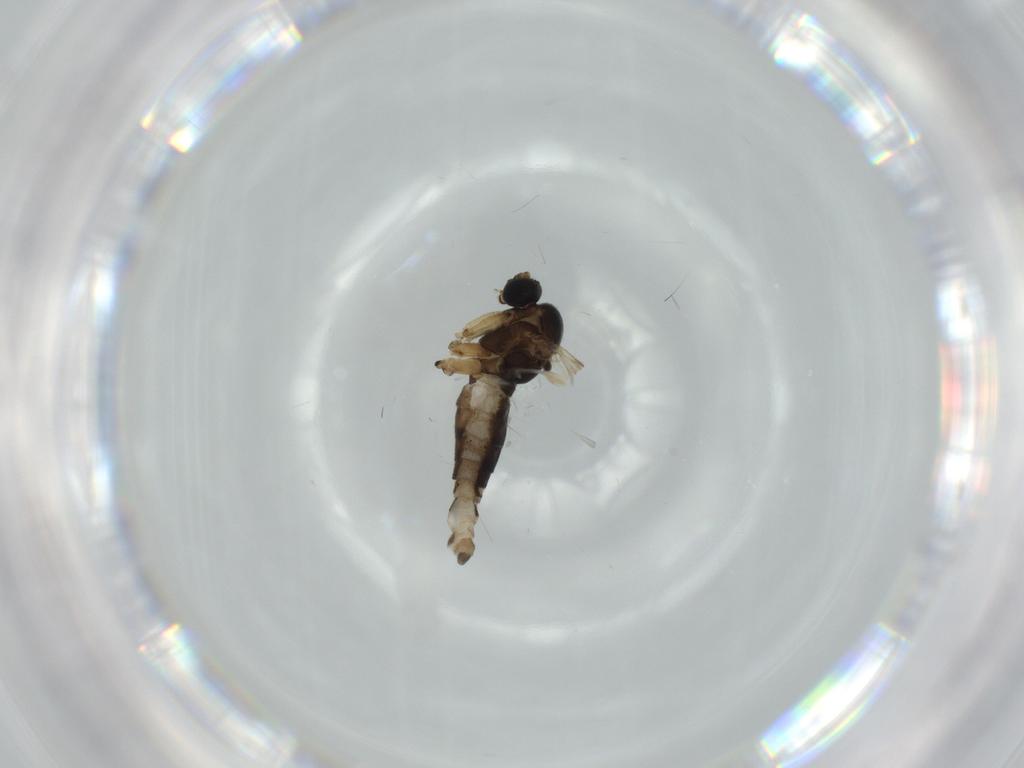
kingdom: Animalia
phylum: Arthropoda
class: Insecta
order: Diptera
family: Sciaridae
